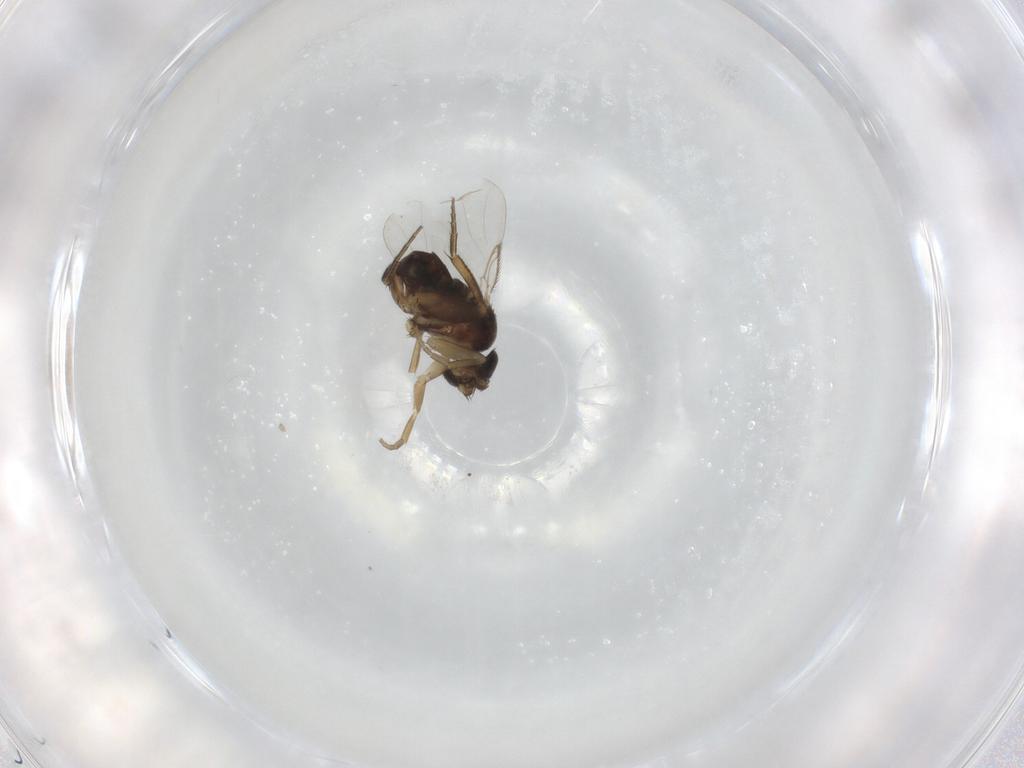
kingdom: Animalia
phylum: Arthropoda
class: Insecta
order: Diptera
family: Phoridae
